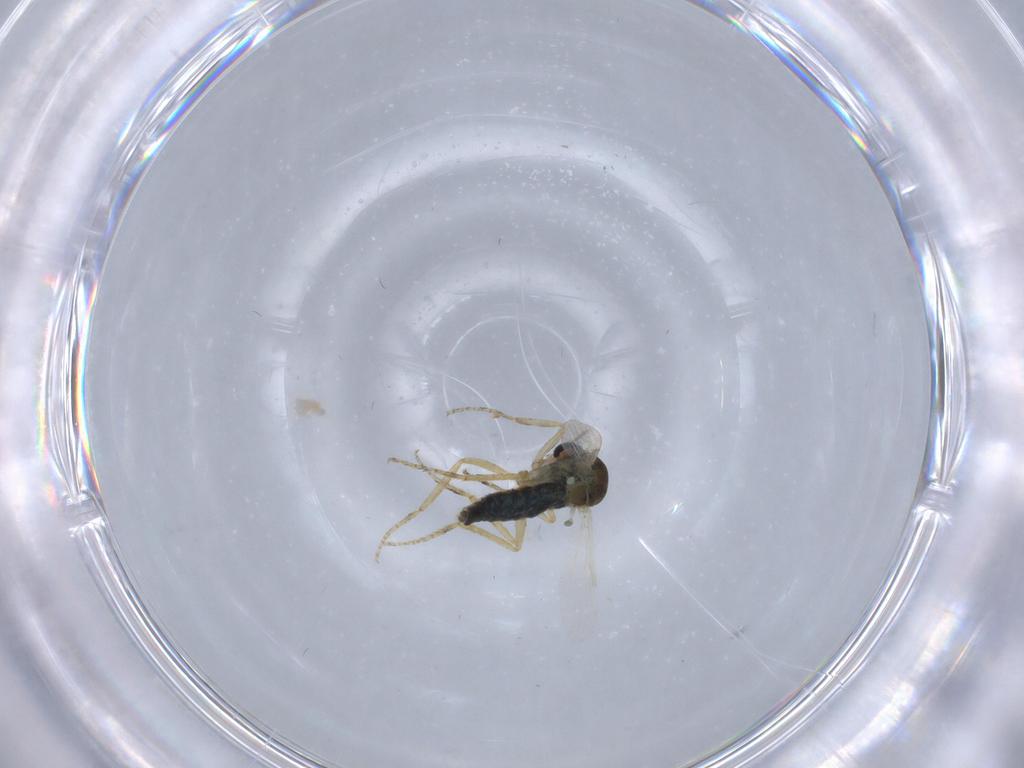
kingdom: Animalia
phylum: Arthropoda
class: Insecta
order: Diptera
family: Ceratopogonidae
